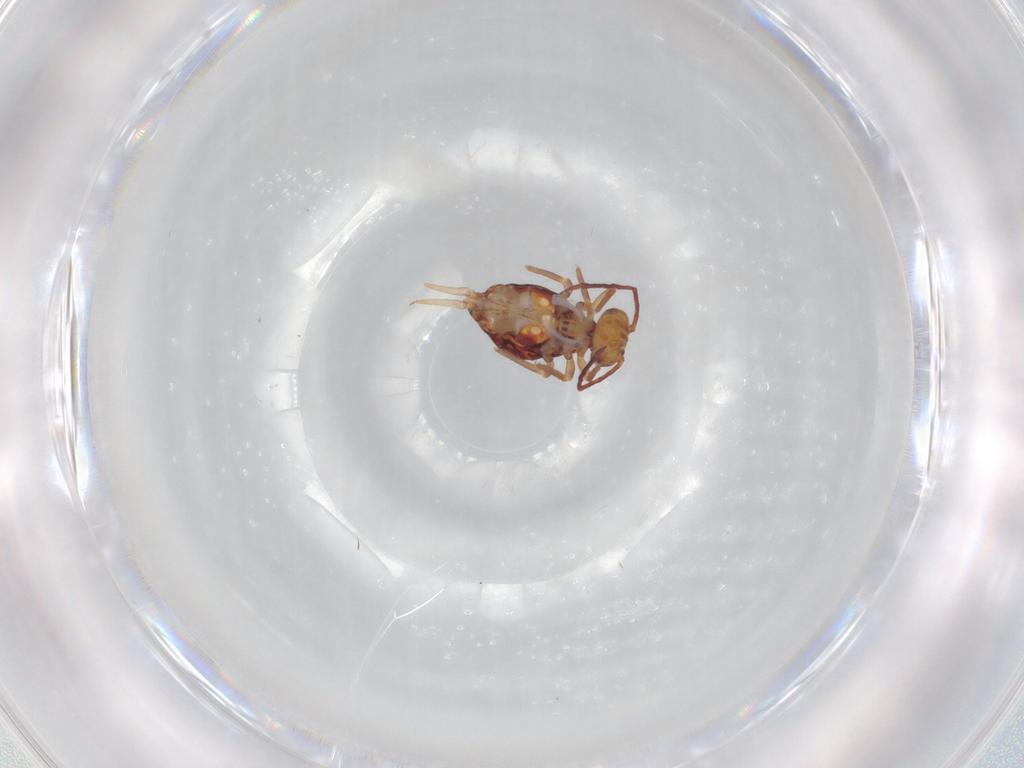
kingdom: Animalia
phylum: Arthropoda
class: Collembola
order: Symphypleona
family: Dicyrtomidae
